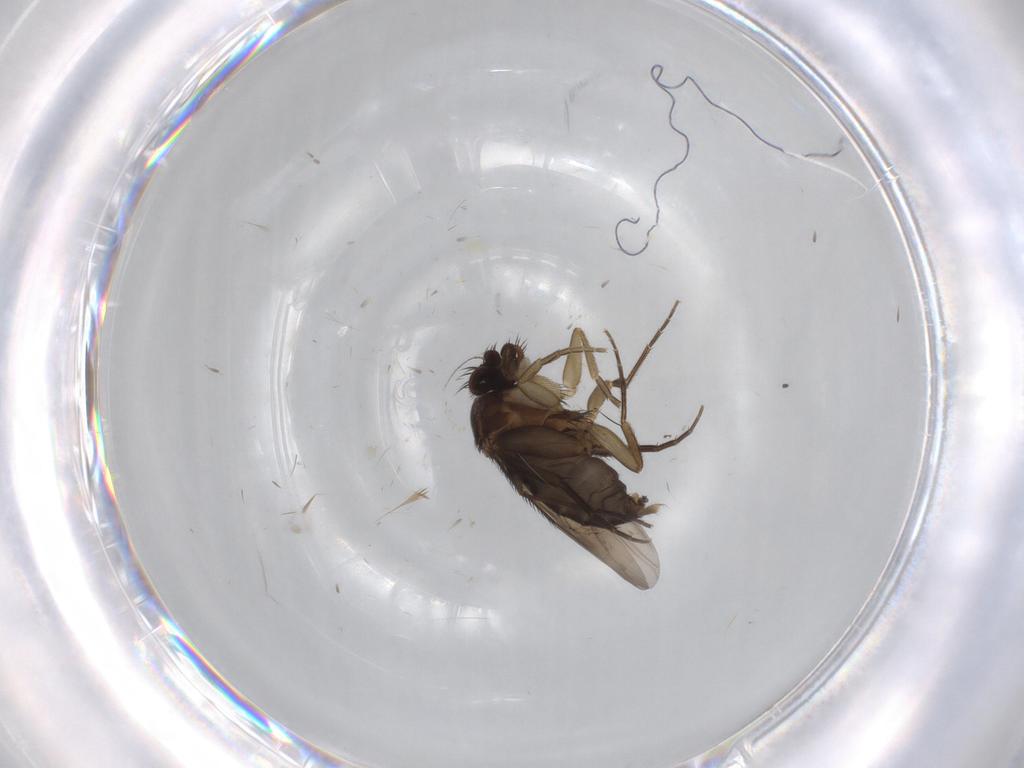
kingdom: Animalia
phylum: Arthropoda
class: Insecta
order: Diptera
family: Phoridae
